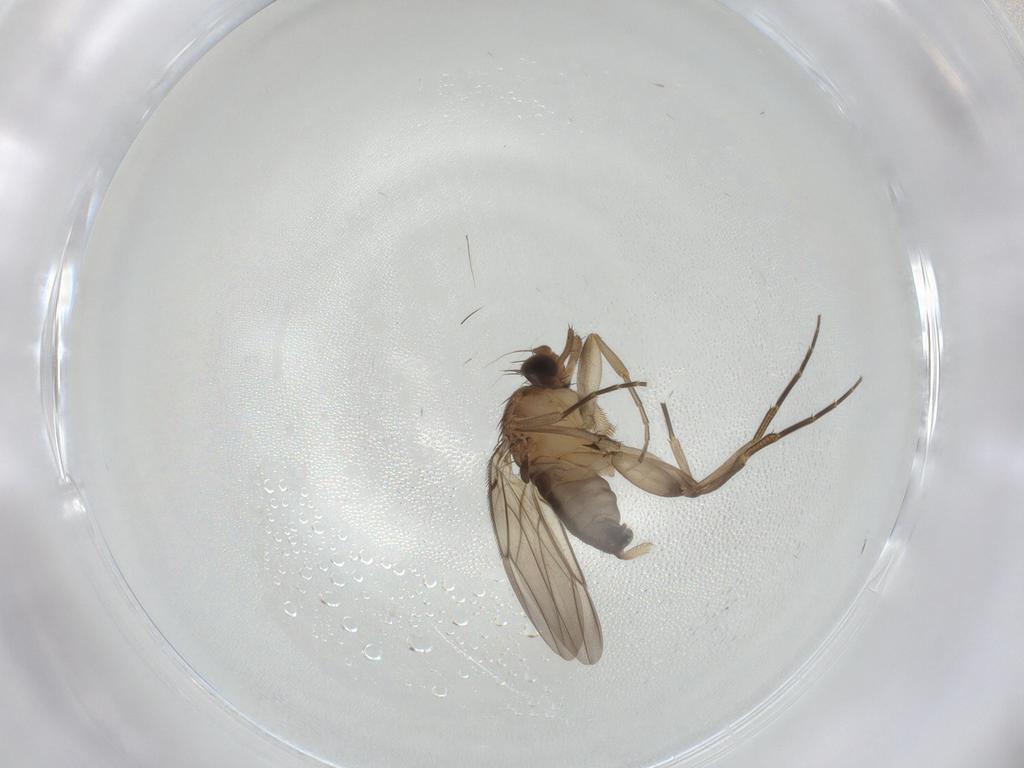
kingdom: Animalia
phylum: Arthropoda
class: Insecta
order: Diptera
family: Phoridae
